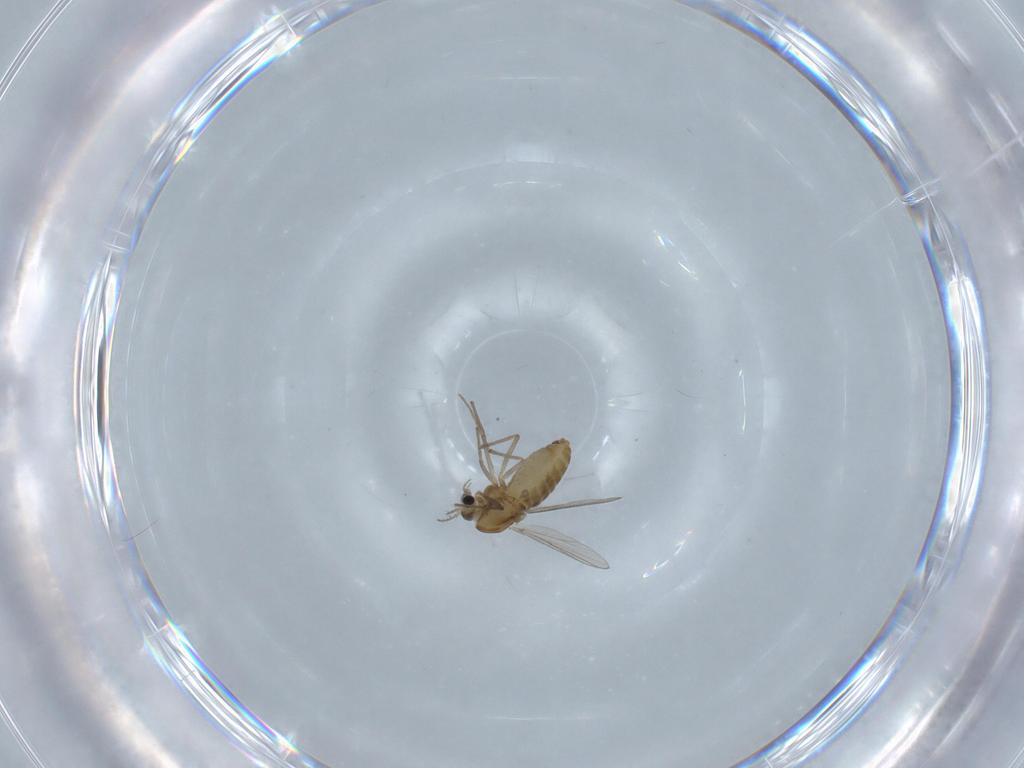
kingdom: Animalia
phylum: Arthropoda
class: Insecta
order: Diptera
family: Chironomidae
